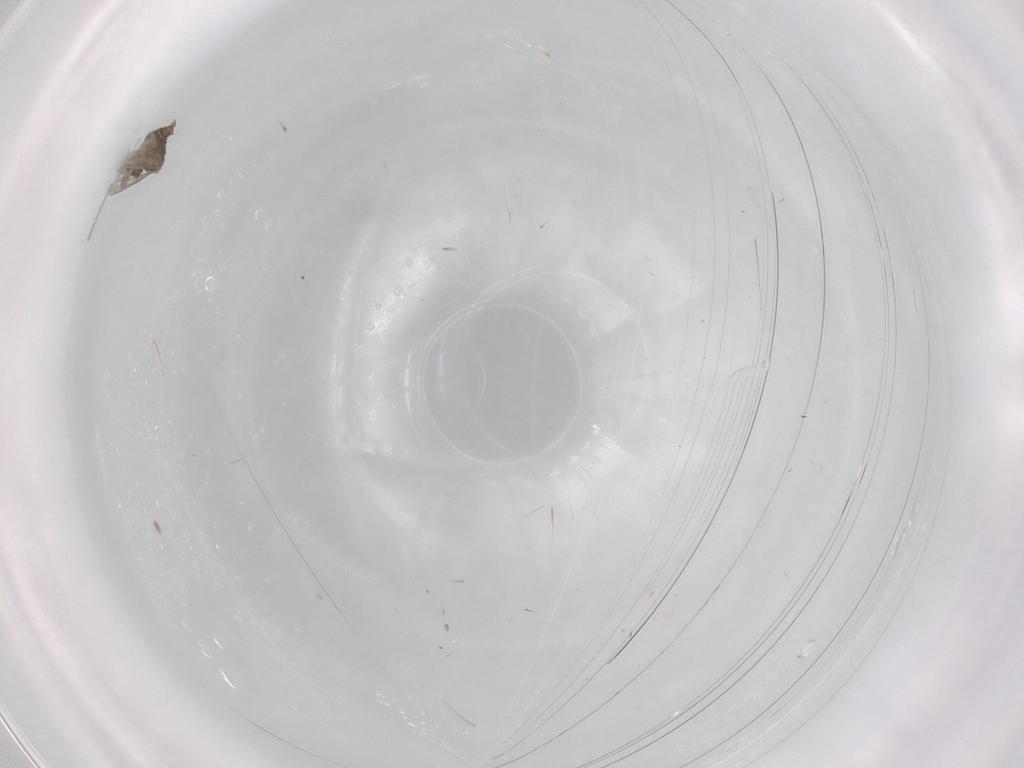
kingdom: Animalia
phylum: Arthropoda
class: Insecta
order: Diptera
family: Cecidomyiidae
